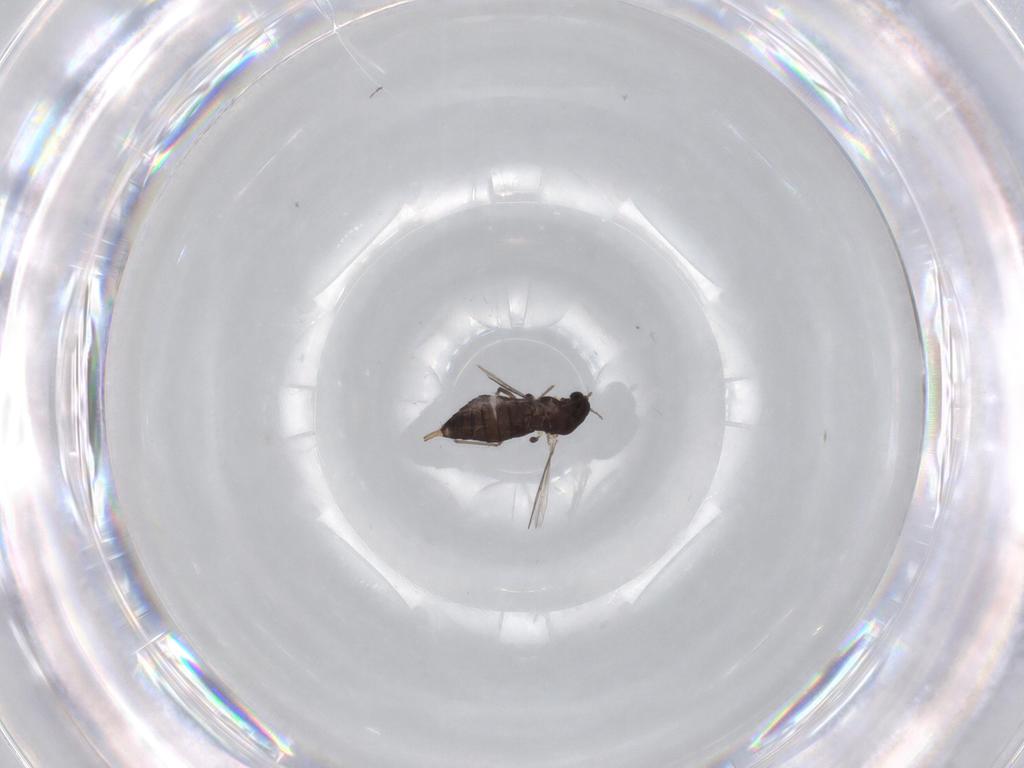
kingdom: Animalia
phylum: Arthropoda
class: Insecta
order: Diptera
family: Chironomidae
